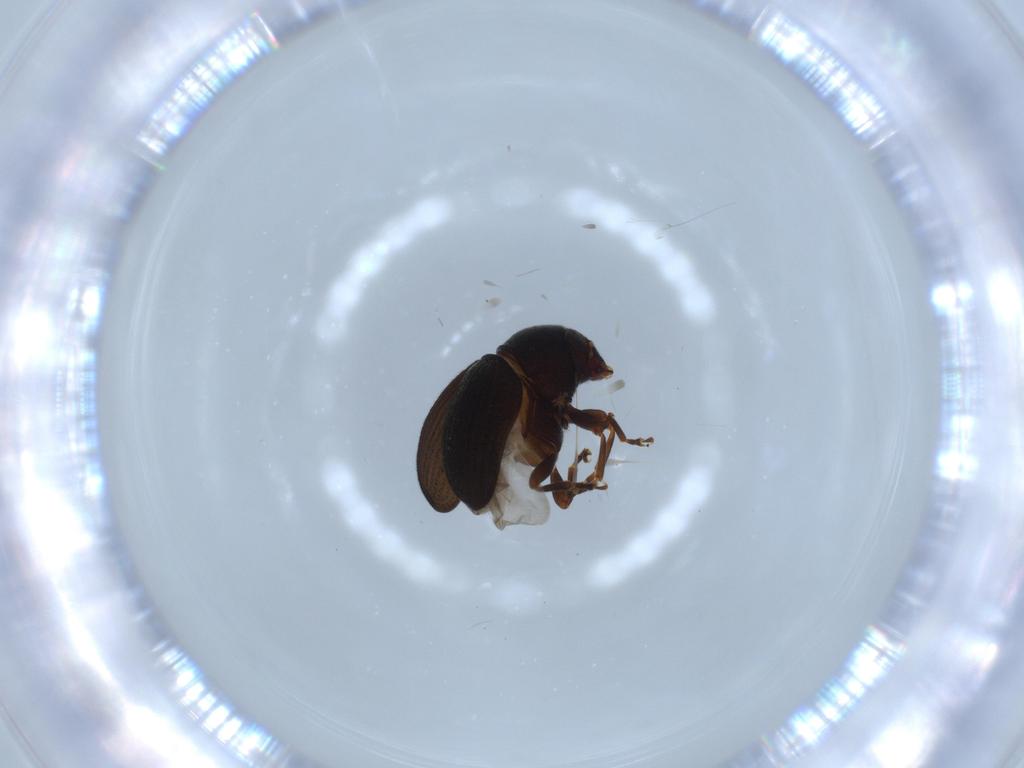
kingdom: Animalia
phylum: Arthropoda
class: Insecta
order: Coleoptera
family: Anthribidae
